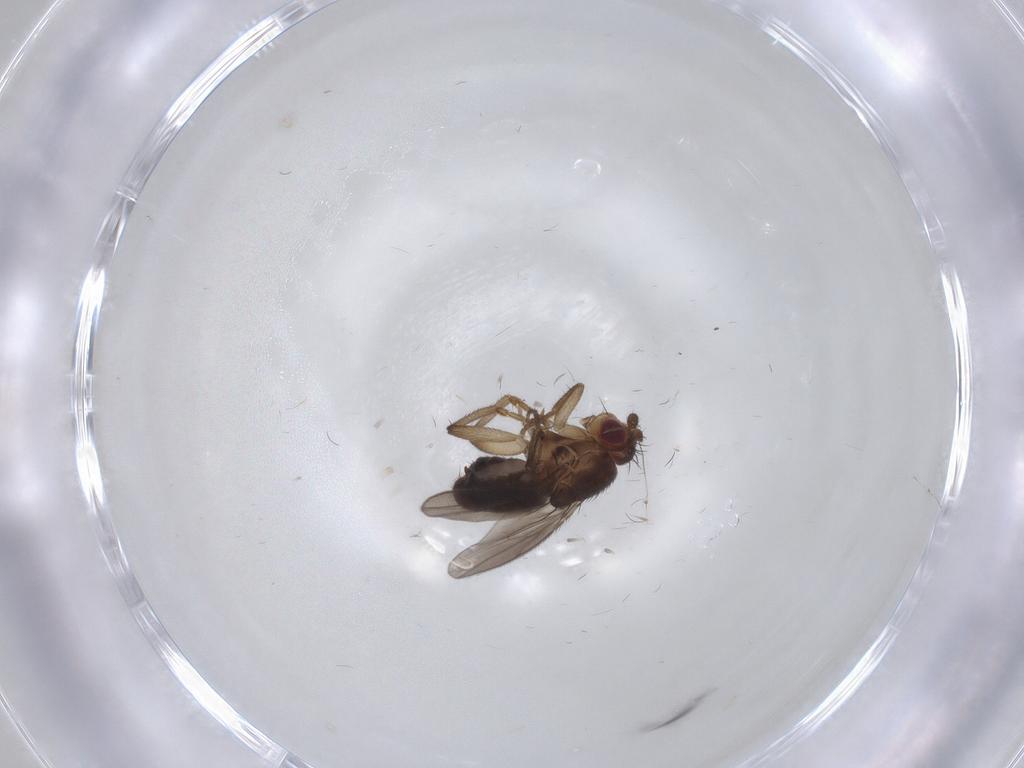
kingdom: Animalia
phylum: Arthropoda
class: Insecta
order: Diptera
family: Sphaeroceridae
